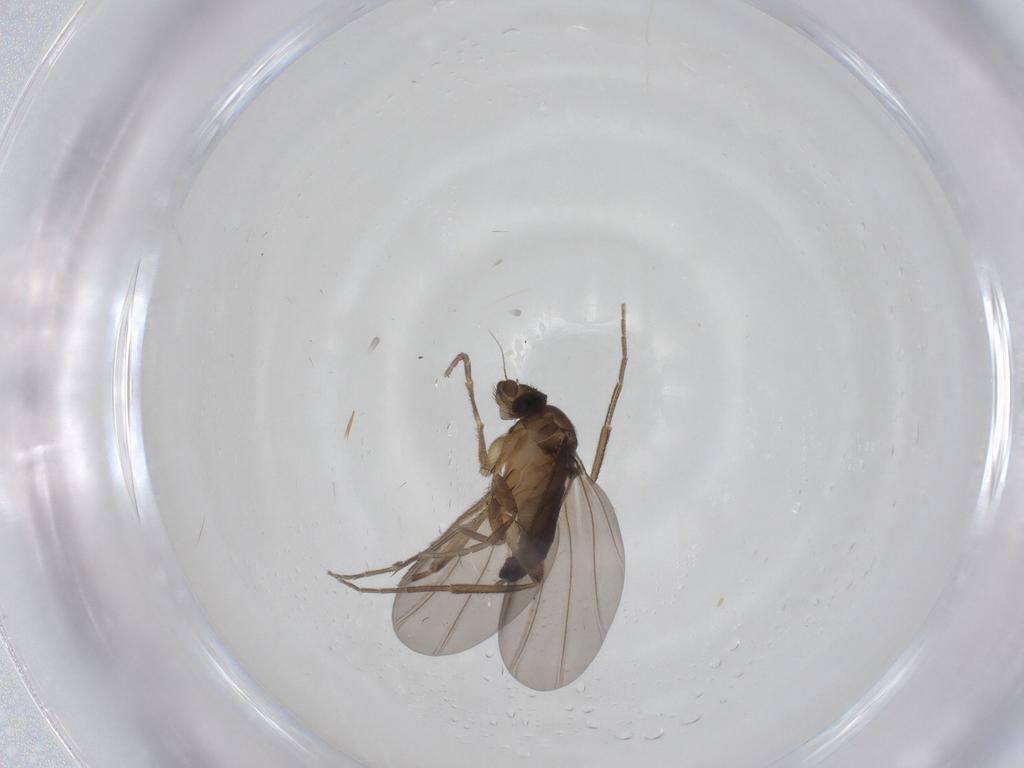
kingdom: Animalia
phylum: Arthropoda
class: Insecta
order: Diptera
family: Phoridae
